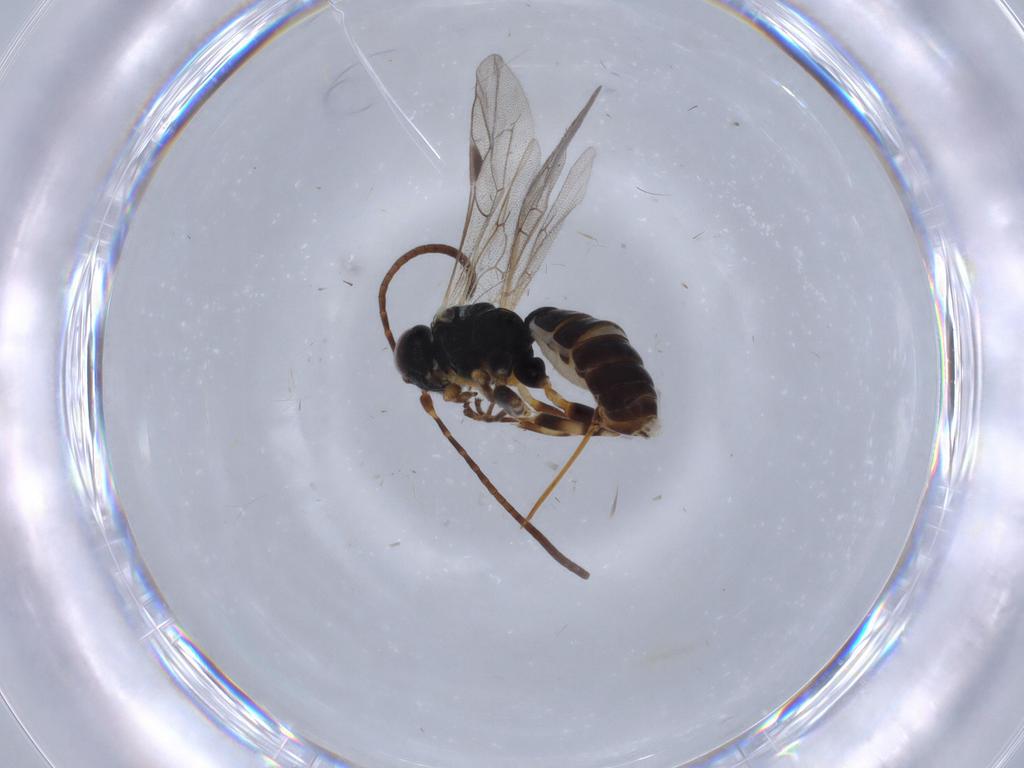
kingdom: Animalia
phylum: Arthropoda
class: Insecta
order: Hymenoptera
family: Ichneumonidae
